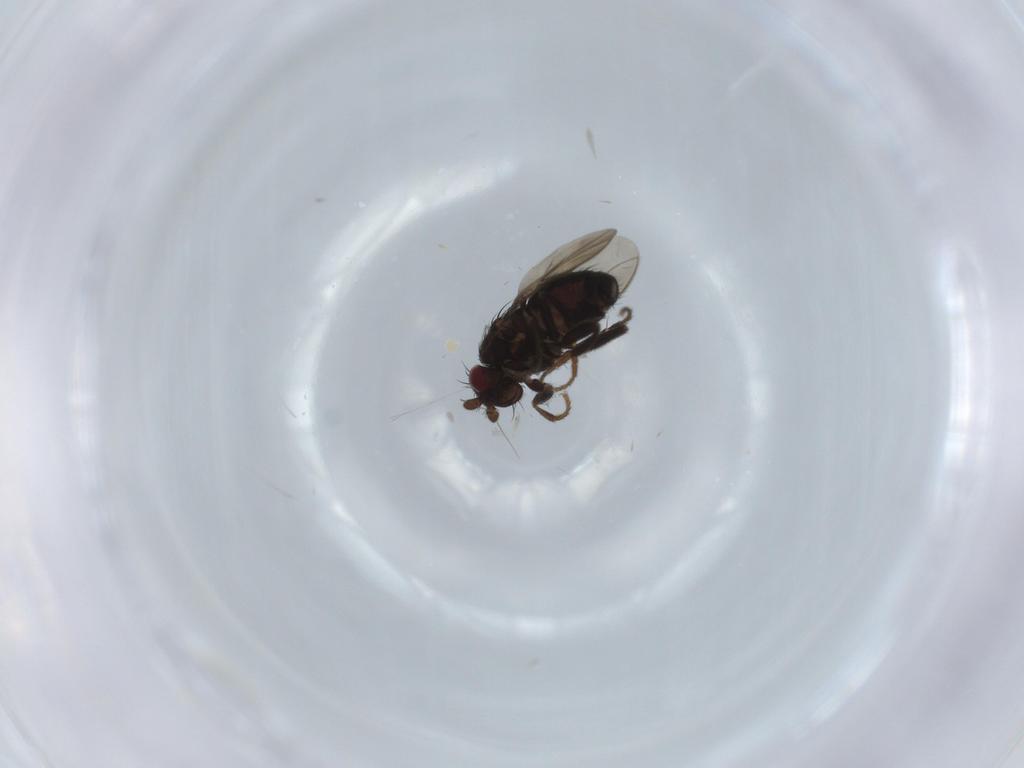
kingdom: Animalia
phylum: Arthropoda
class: Insecta
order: Diptera
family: Sphaeroceridae
